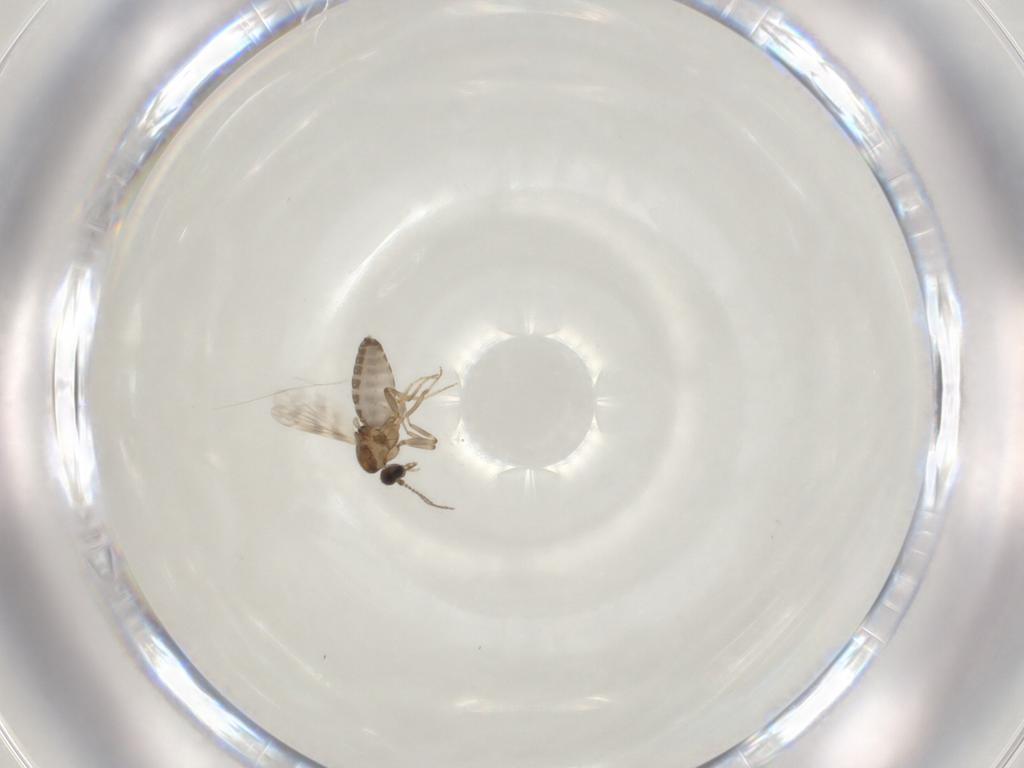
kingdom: Animalia
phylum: Arthropoda
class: Insecta
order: Diptera
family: Ceratopogonidae
